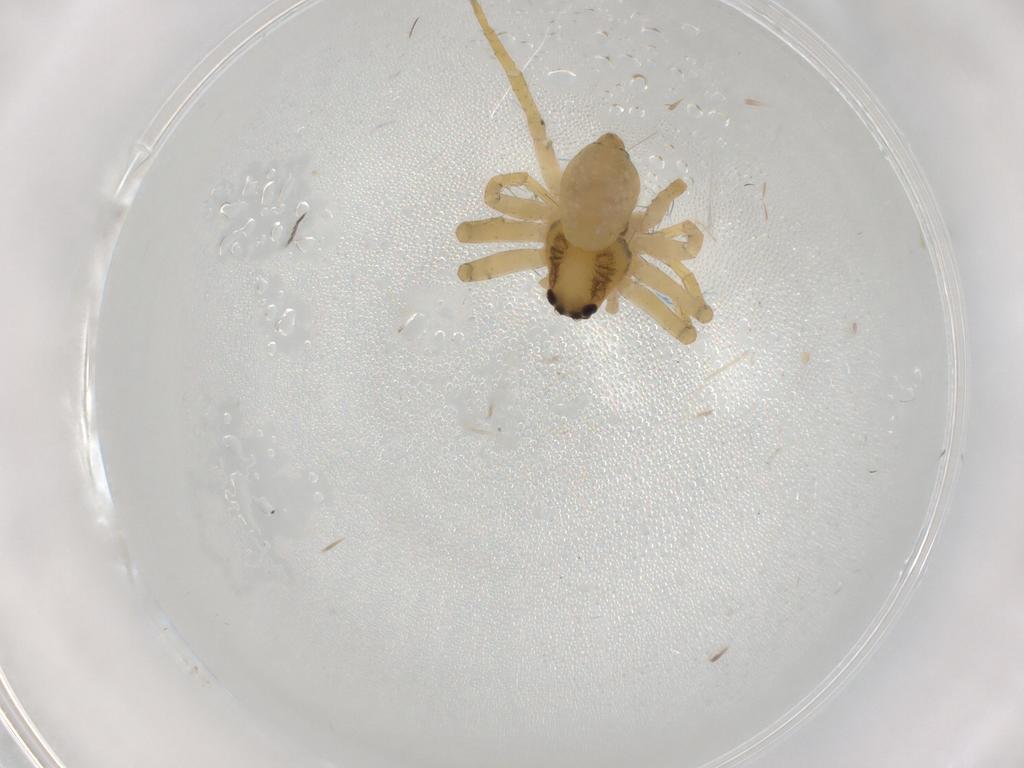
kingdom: Animalia
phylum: Arthropoda
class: Arachnida
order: Araneae
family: Pisauridae
